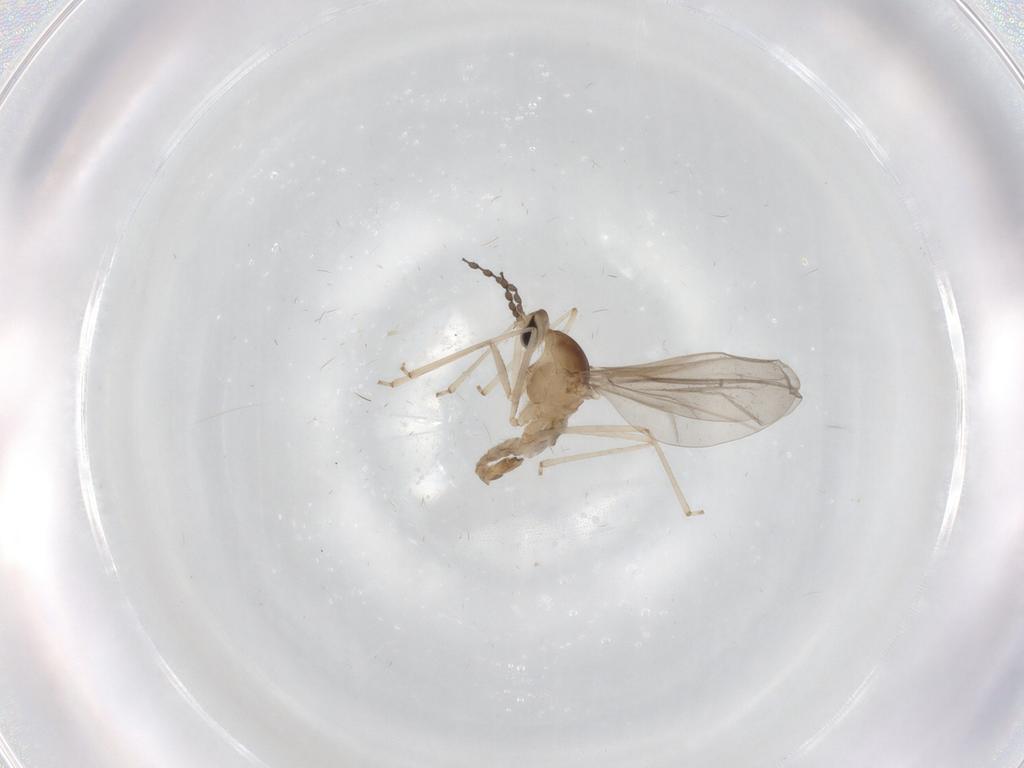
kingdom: Animalia
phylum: Arthropoda
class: Insecta
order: Diptera
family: Cecidomyiidae
